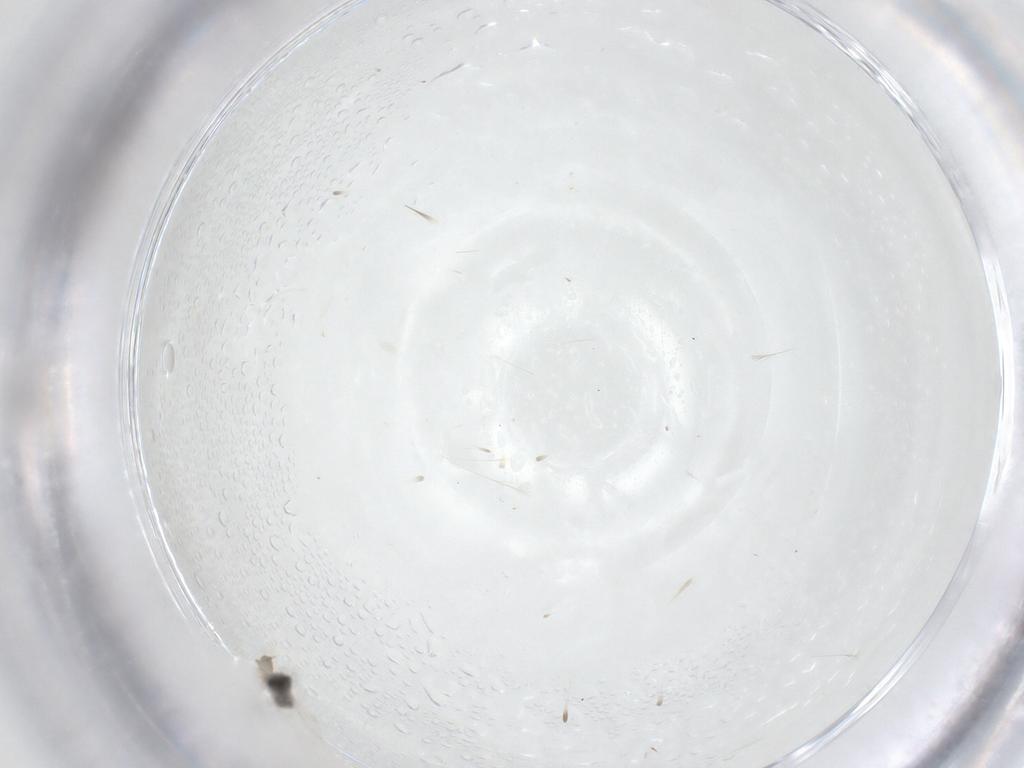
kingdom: Animalia
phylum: Arthropoda
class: Insecta
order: Diptera
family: Cecidomyiidae
